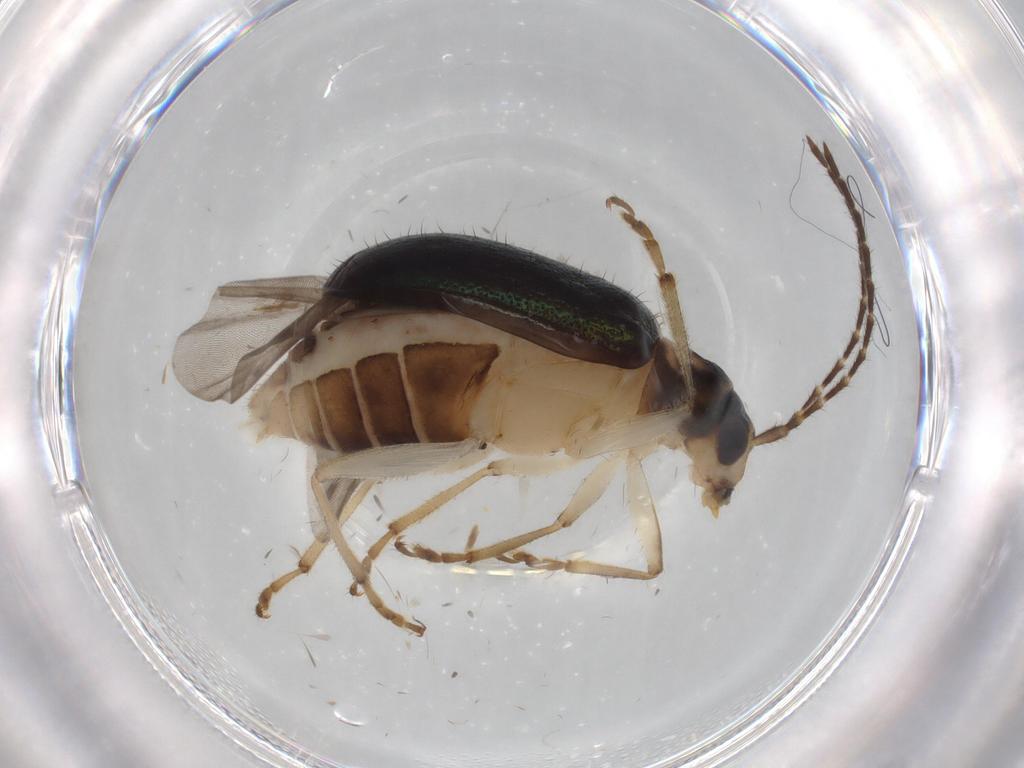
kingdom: Animalia
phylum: Arthropoda
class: Insecta
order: Coleoptera
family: Chrysomelidae
